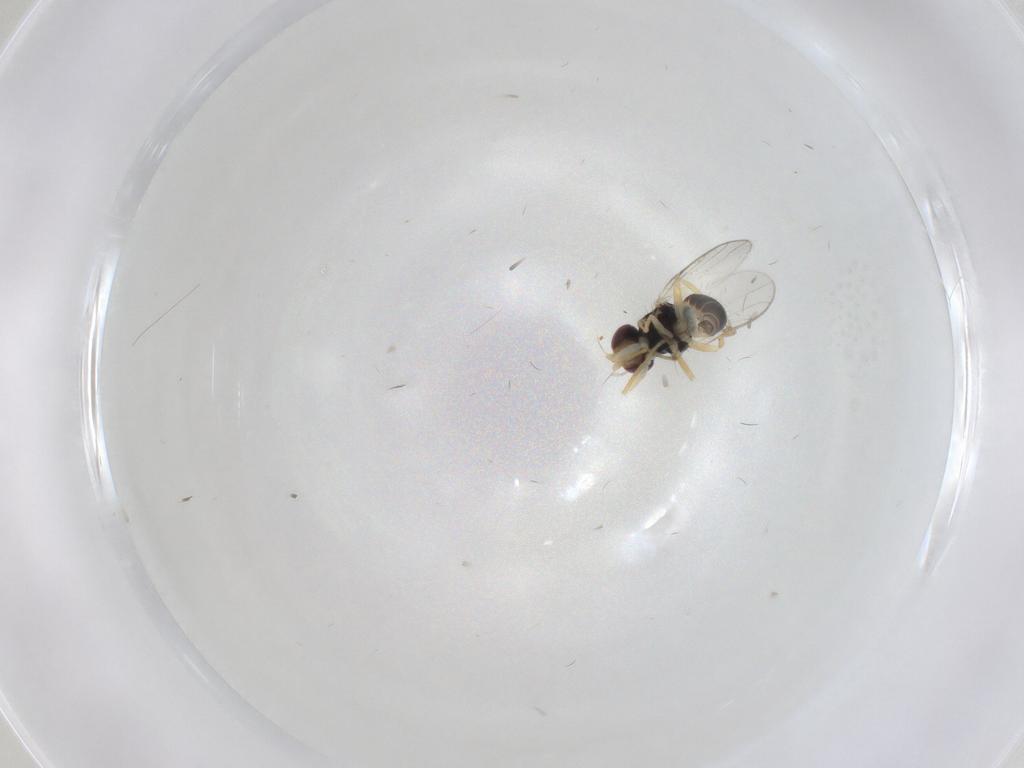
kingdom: Animalia
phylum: Arthropoda
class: Insecta
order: Diptera
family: Chloropidae
